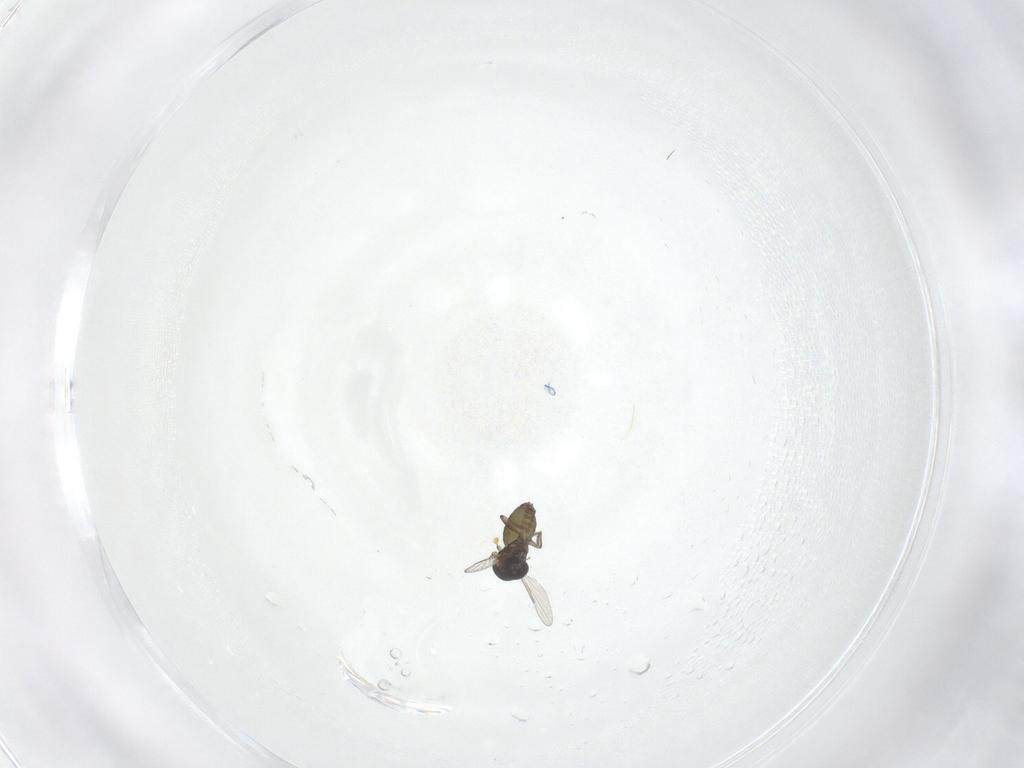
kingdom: Animalia
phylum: Arthropoda
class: Insecta
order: Diptera
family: Ceratopogonidae
